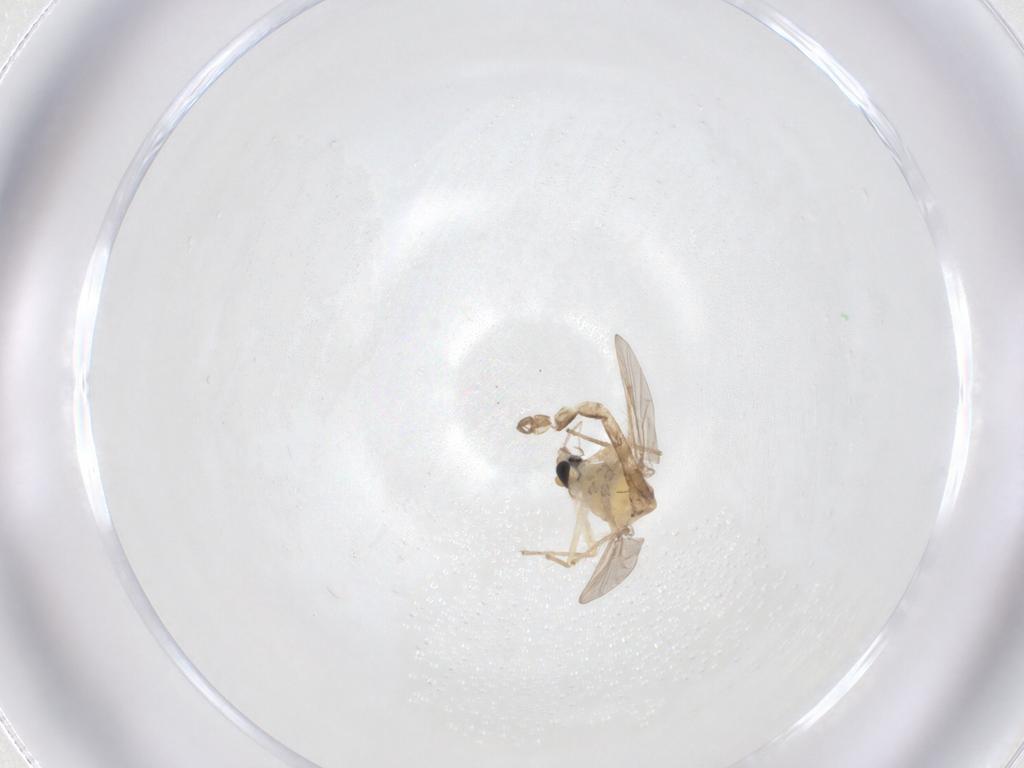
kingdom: Animalia
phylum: Arthropoda
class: Insecta
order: Diptera
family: Chironomidae
